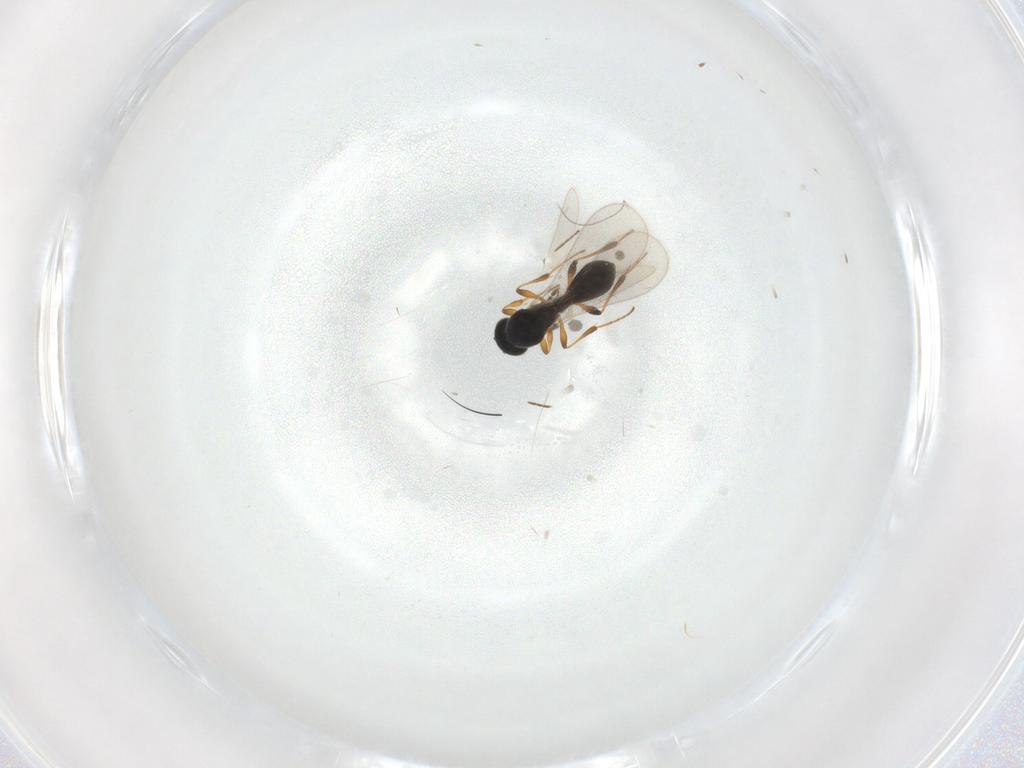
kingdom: Animalia
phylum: Arthropoda
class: Insecta
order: Hymenoptera
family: Platygastridae
